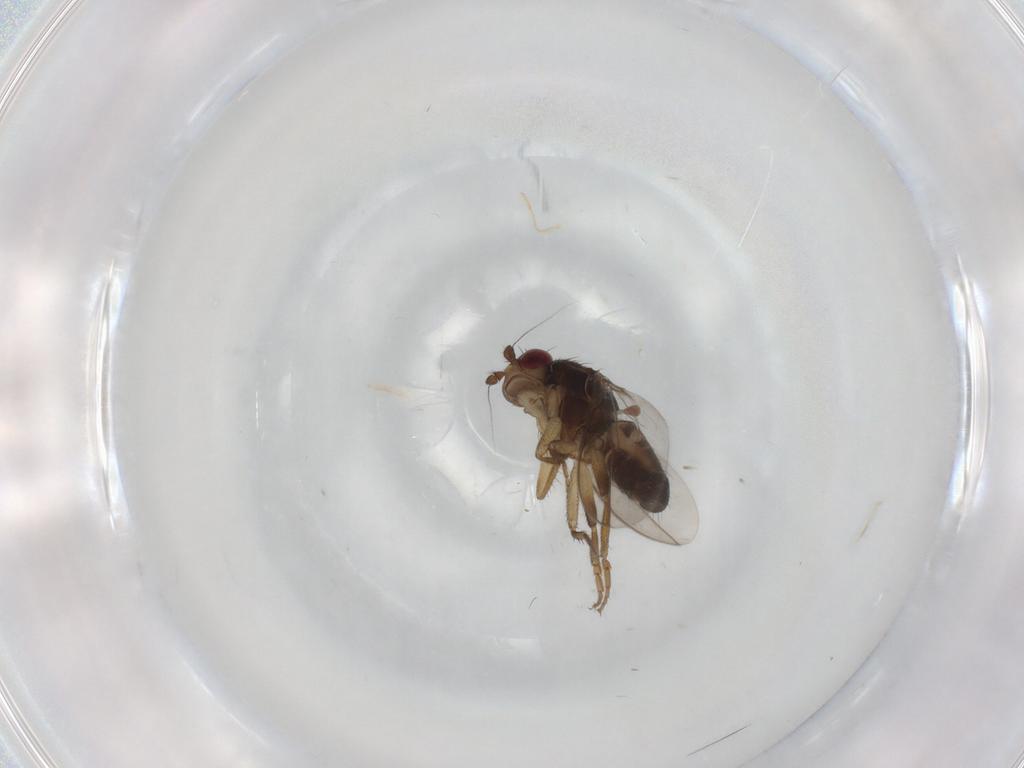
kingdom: Animalia
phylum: Arthropoda
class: Insecta
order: Diptera
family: Sphaeroceridae
